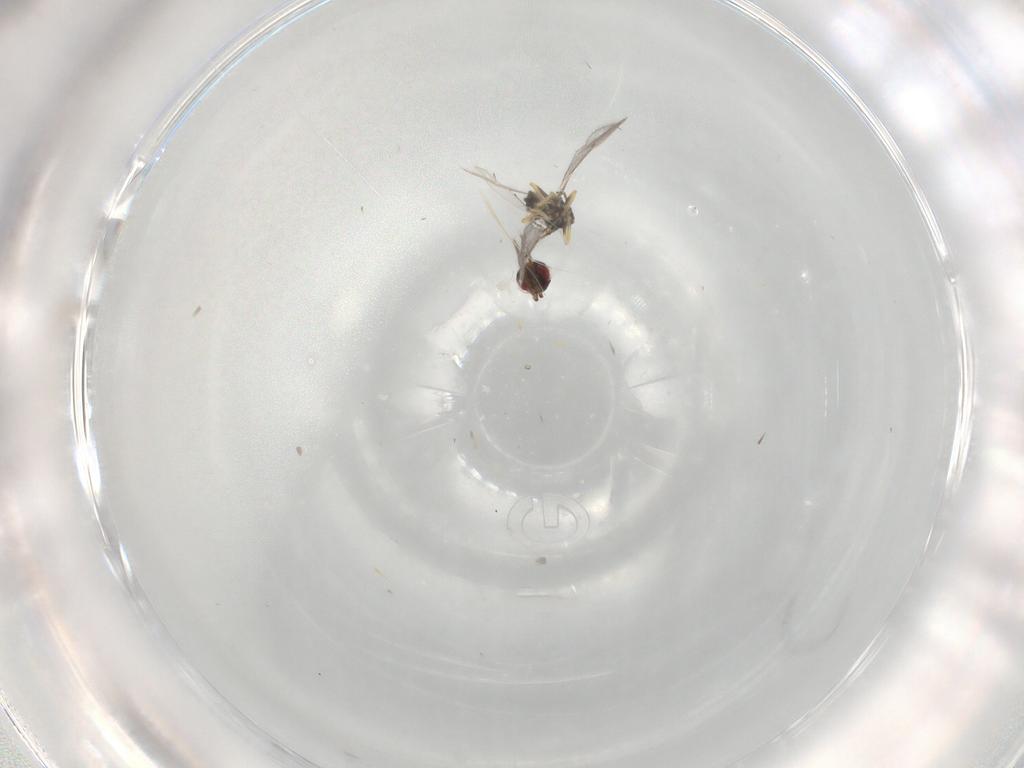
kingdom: Animalia
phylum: Arthropoda
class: Insecta
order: Hymenoptera
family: Eulophidae
